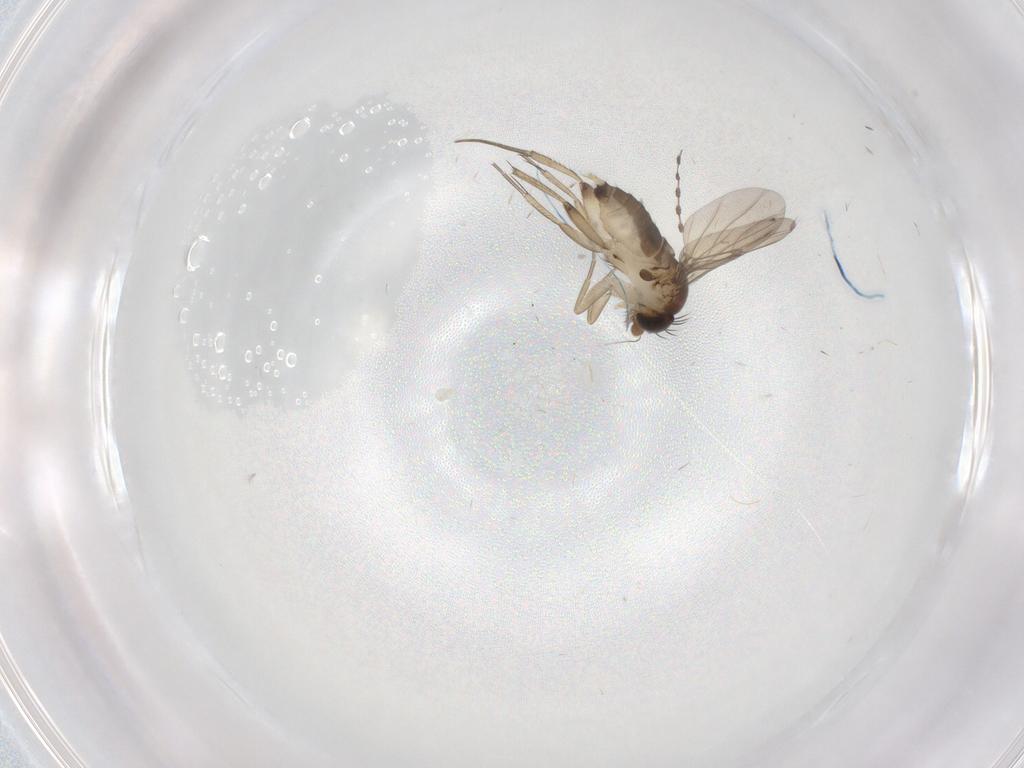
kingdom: Animalia
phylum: Arthropoda
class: Insecta
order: Diptera
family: Phoridae
